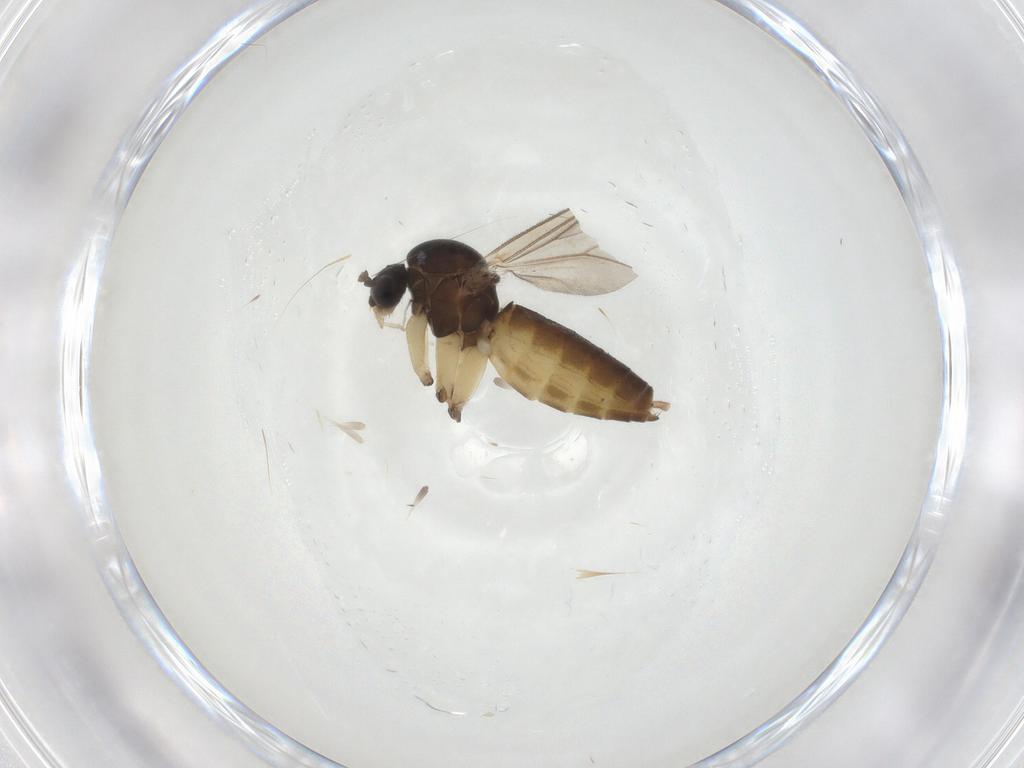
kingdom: Animalia
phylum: Arthropoda
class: Insecta
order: Diptera
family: Mycetophilidae
